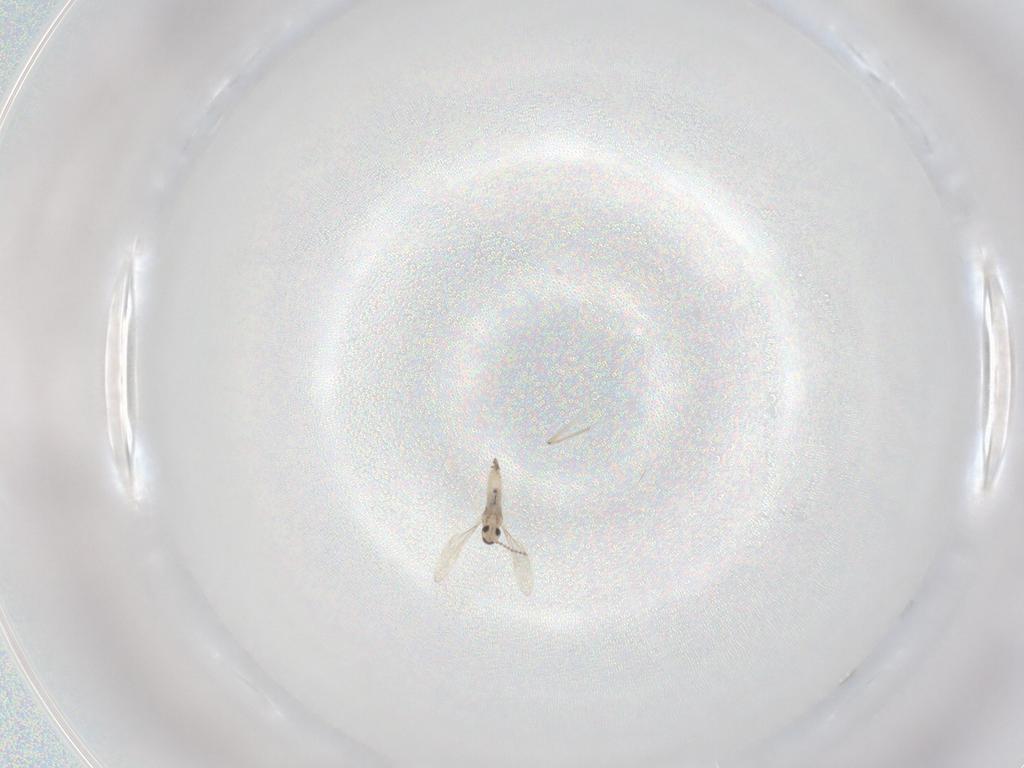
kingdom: Animalia
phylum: Arthropoda
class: Insecta
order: Diptera
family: Cecidomyiidae
